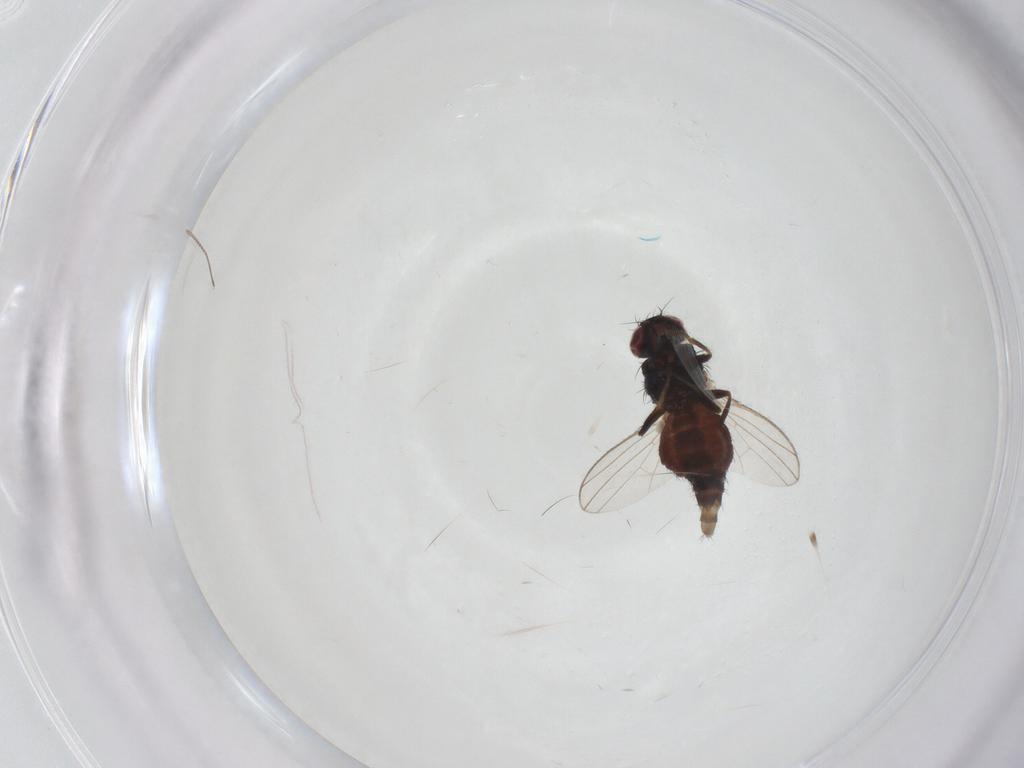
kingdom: Animalia
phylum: Arthropoda
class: Insecta
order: Diptera
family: Carnidae
